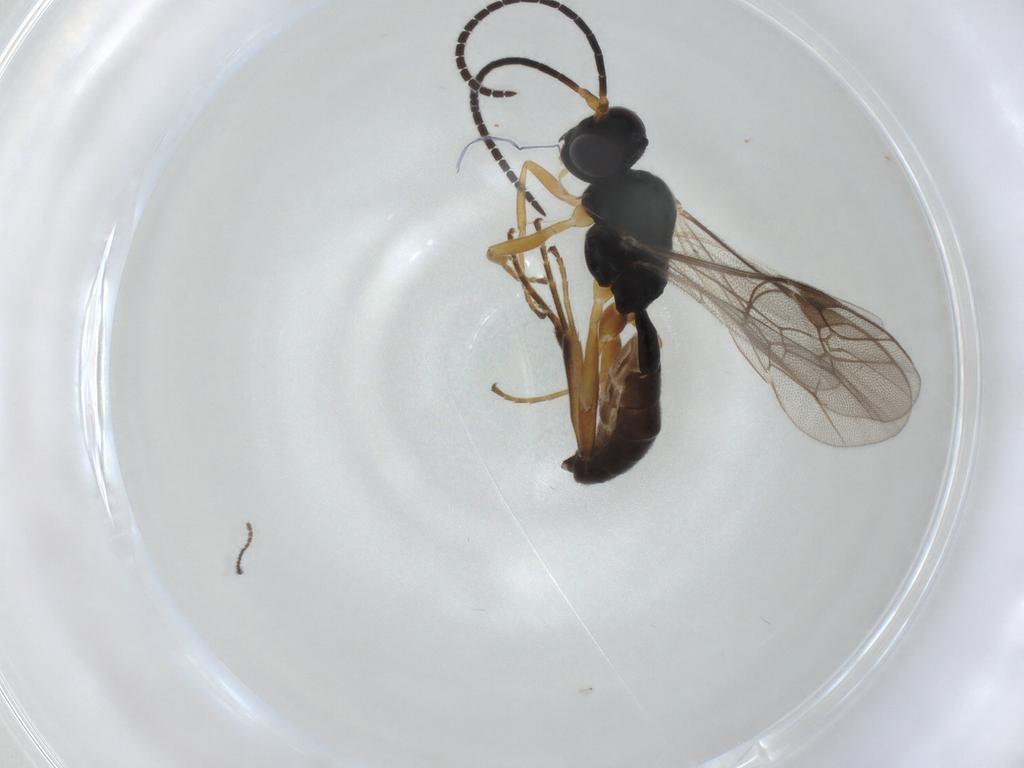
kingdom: Animalia
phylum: Arthropoda
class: Insecta
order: Hymenoptera
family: Ichneumonidae
